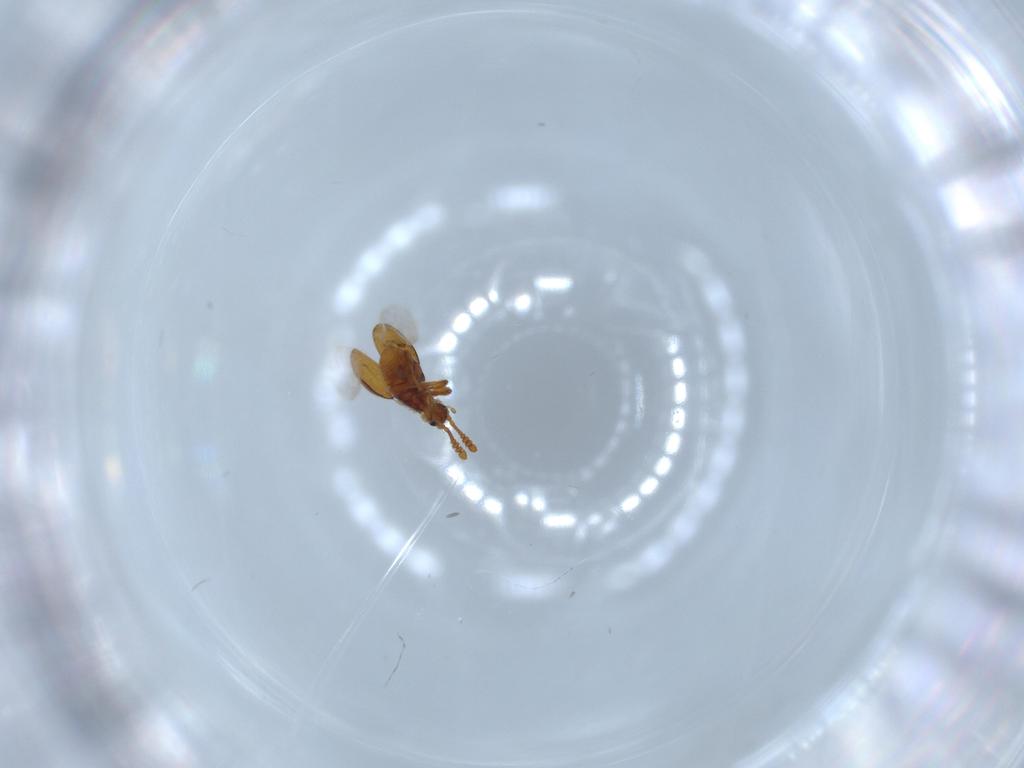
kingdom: Animalia
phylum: Arthropoda
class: Insecta
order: Coleoptera
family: Staphylinidae
